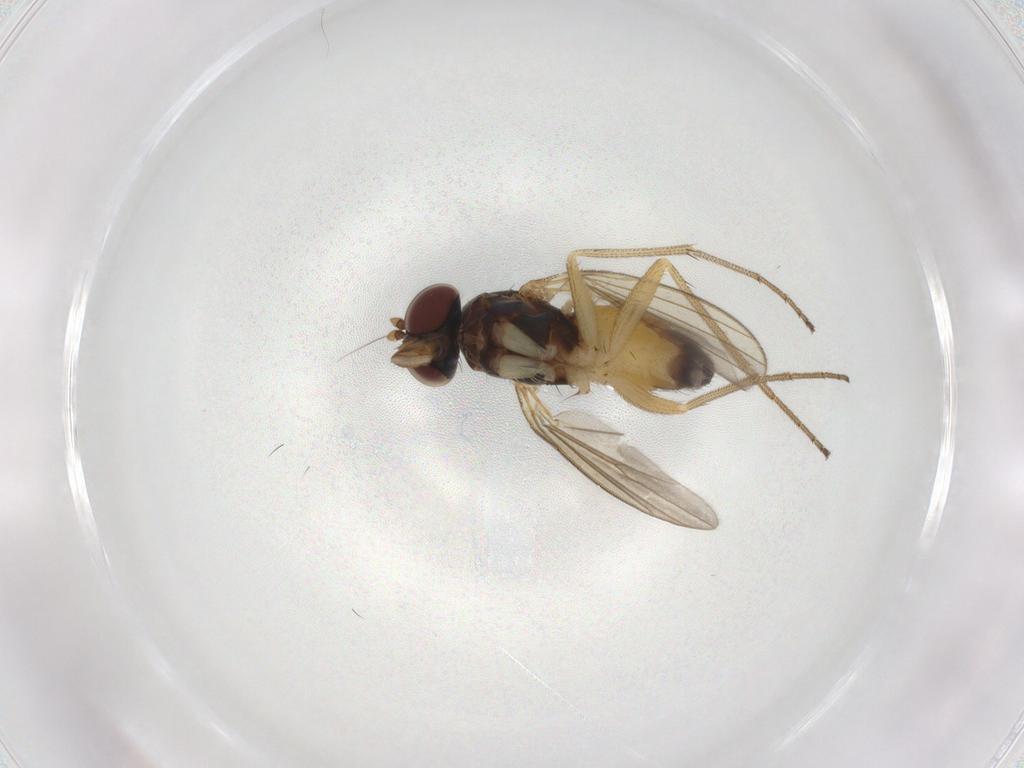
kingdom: Animalia
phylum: Arthropoda
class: Insecta
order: Diptera
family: Dolichopodidae
